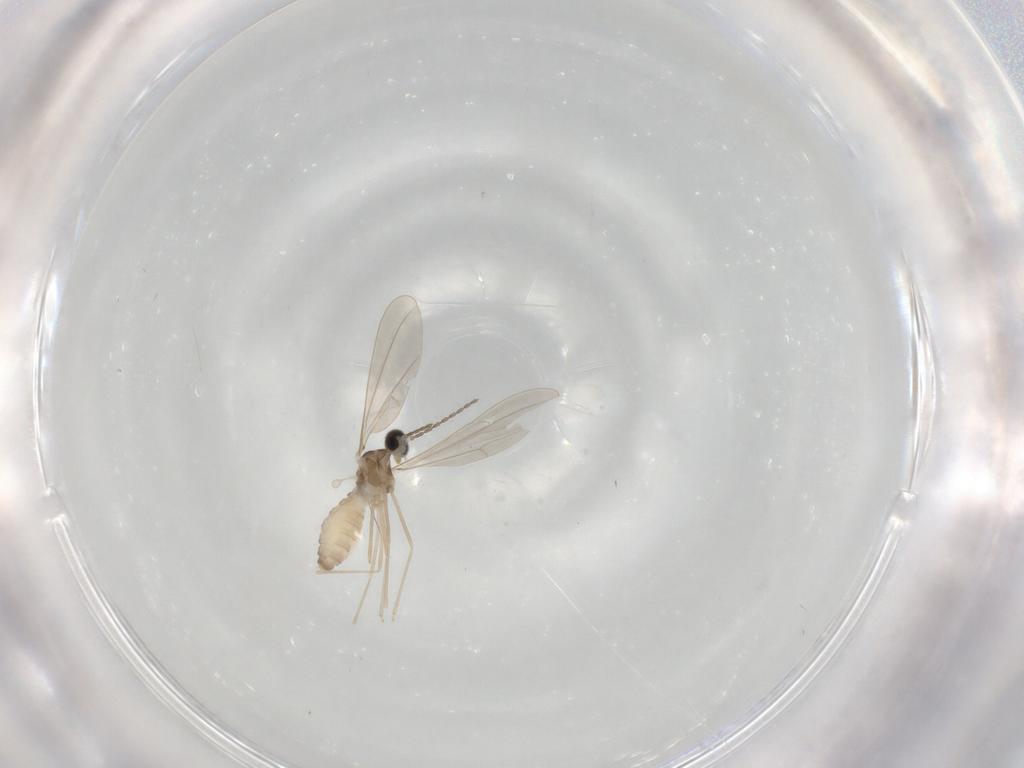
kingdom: Animalia
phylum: Arthropoda
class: Insecta
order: Diptera
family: Cecidomyiidae
